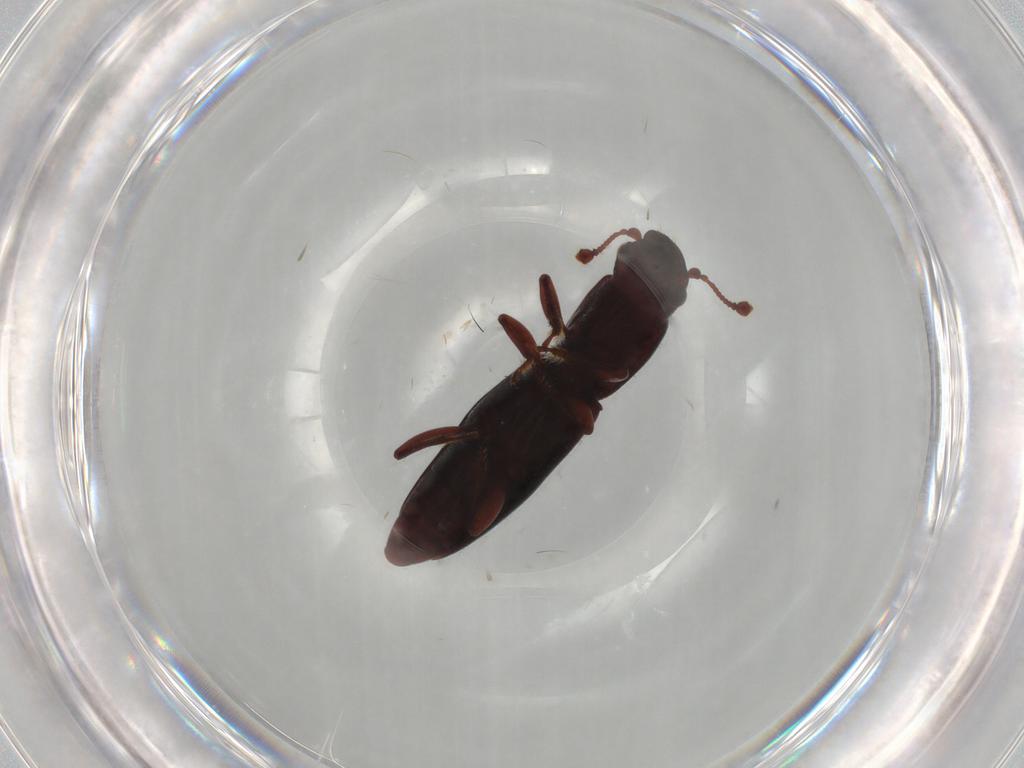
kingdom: Animalia
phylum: Arthropoda
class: Insecta
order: Coleoptera
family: Monotomidae
